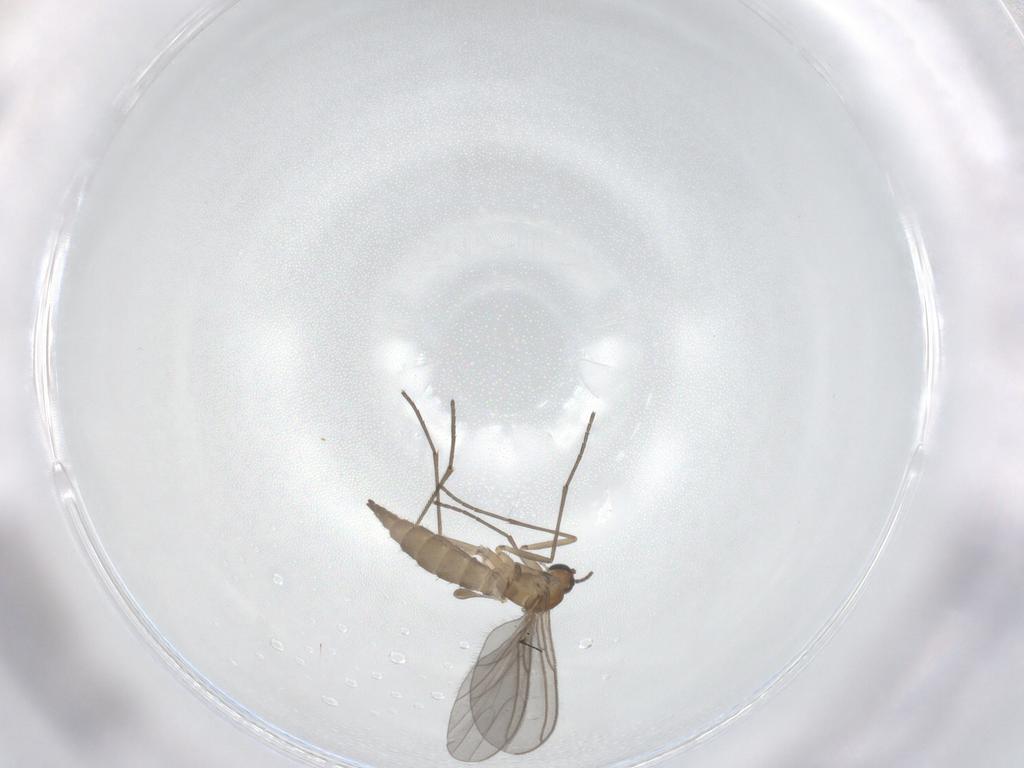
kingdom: Animalia
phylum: Arthropoda
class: Insecta
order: Diptera
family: Sciaridae
